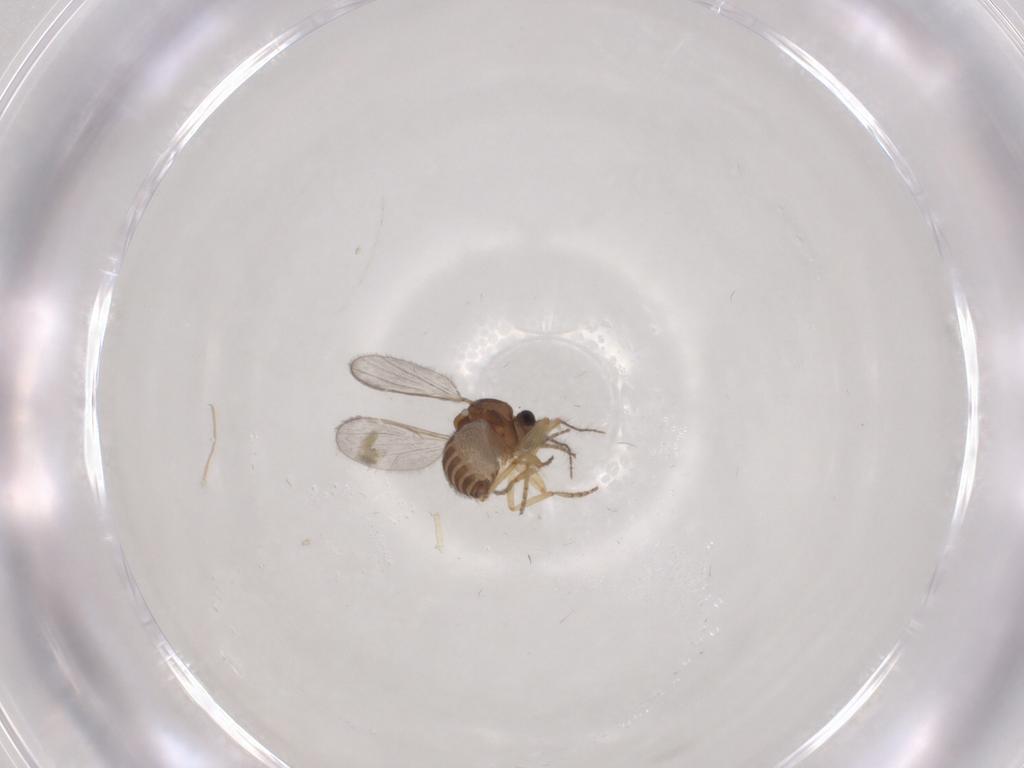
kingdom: Animalia
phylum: Arthropoda
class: Insecta
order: Diptera
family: Ceratopogonidae
